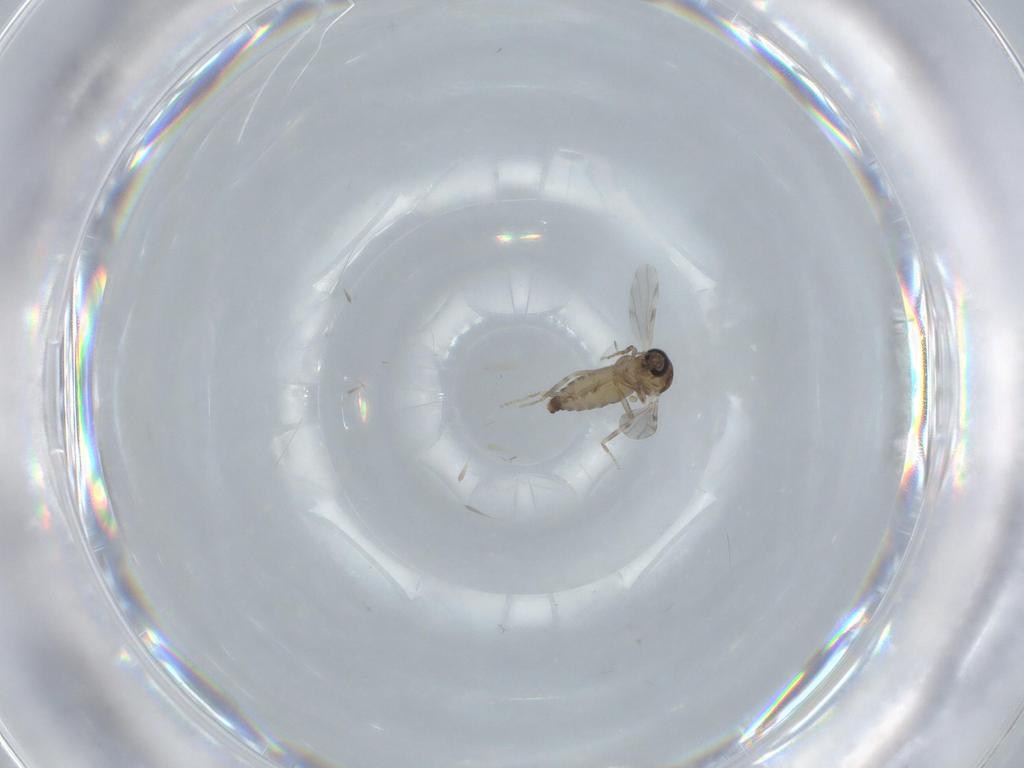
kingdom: Animalia
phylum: Arthropoda
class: Insecta
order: Diptera
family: Ceratopogonidae
